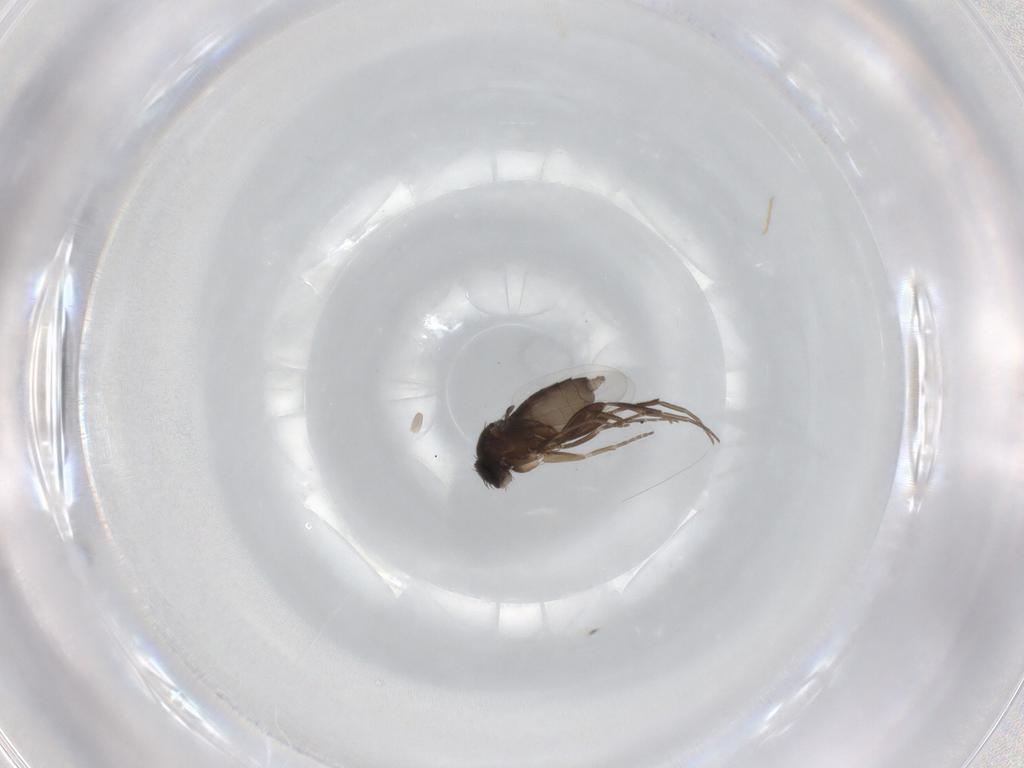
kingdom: Animalia
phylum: Arthropoda
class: Insecta
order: Diptera
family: Phoridae
